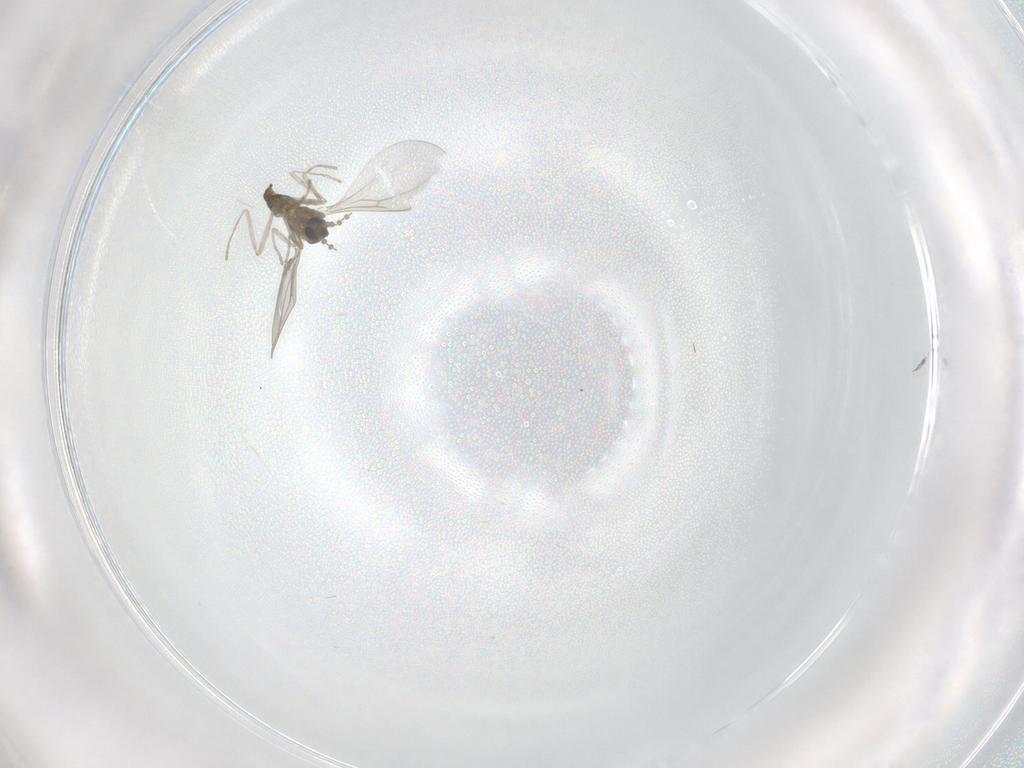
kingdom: Animalia
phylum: Arthropoda
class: Insecta
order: Diptera
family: Cecidomyiidae
